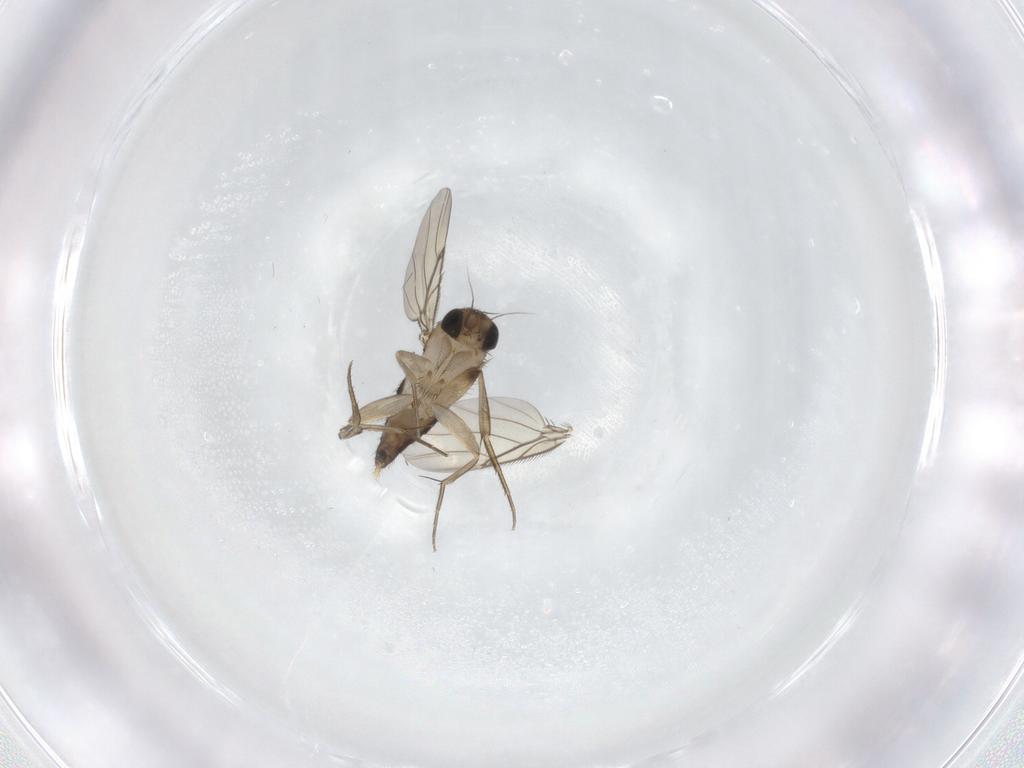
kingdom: Animalia
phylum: Arthropoda
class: Insecta
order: Diptera
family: Phoridae
